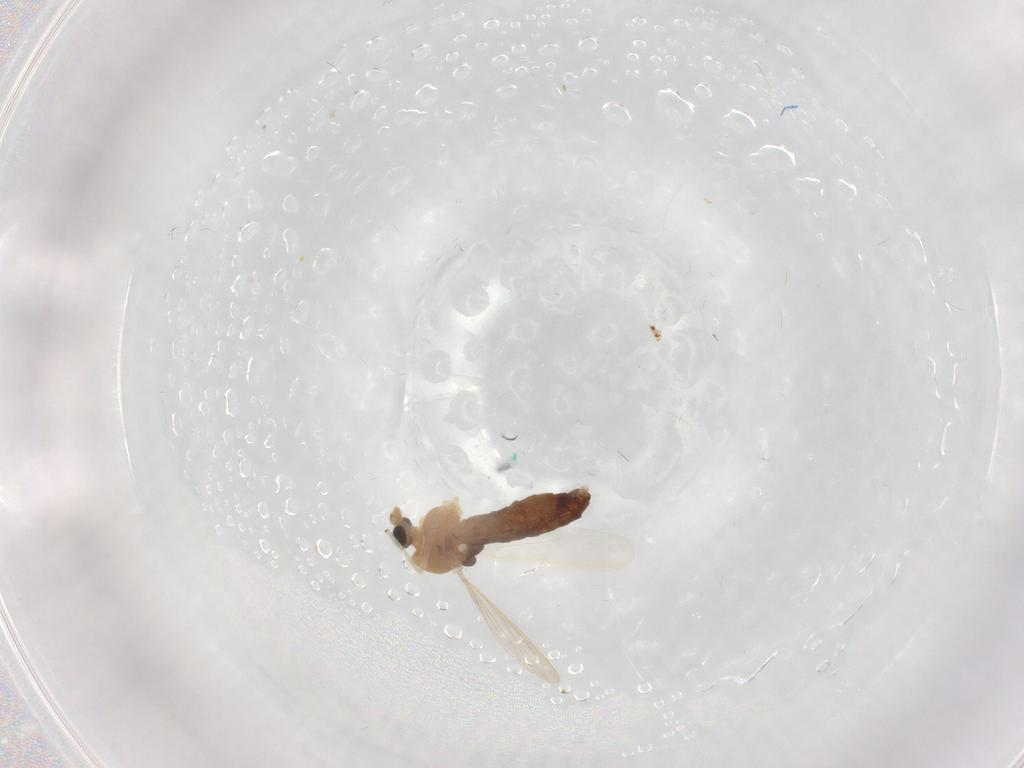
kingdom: Animalia
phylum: Arthropoda
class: Insecta
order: Diptera
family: Chironomidae
